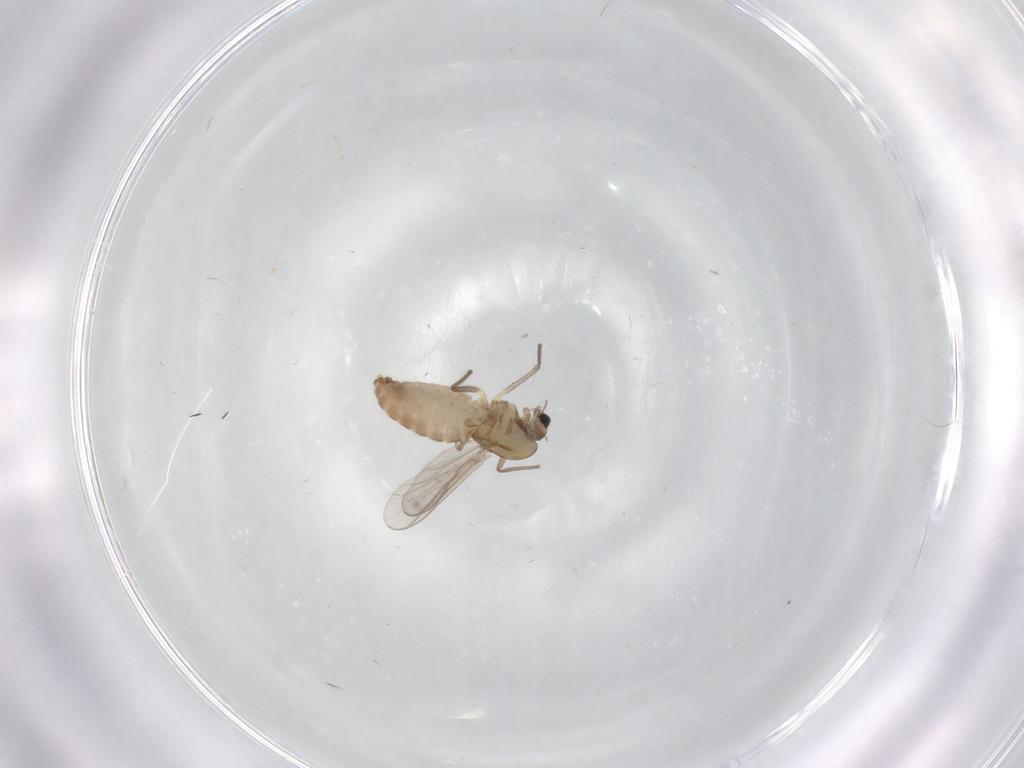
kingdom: Animalia
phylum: Arthropoda
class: Insecta
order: Diptera
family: Chironomidae
